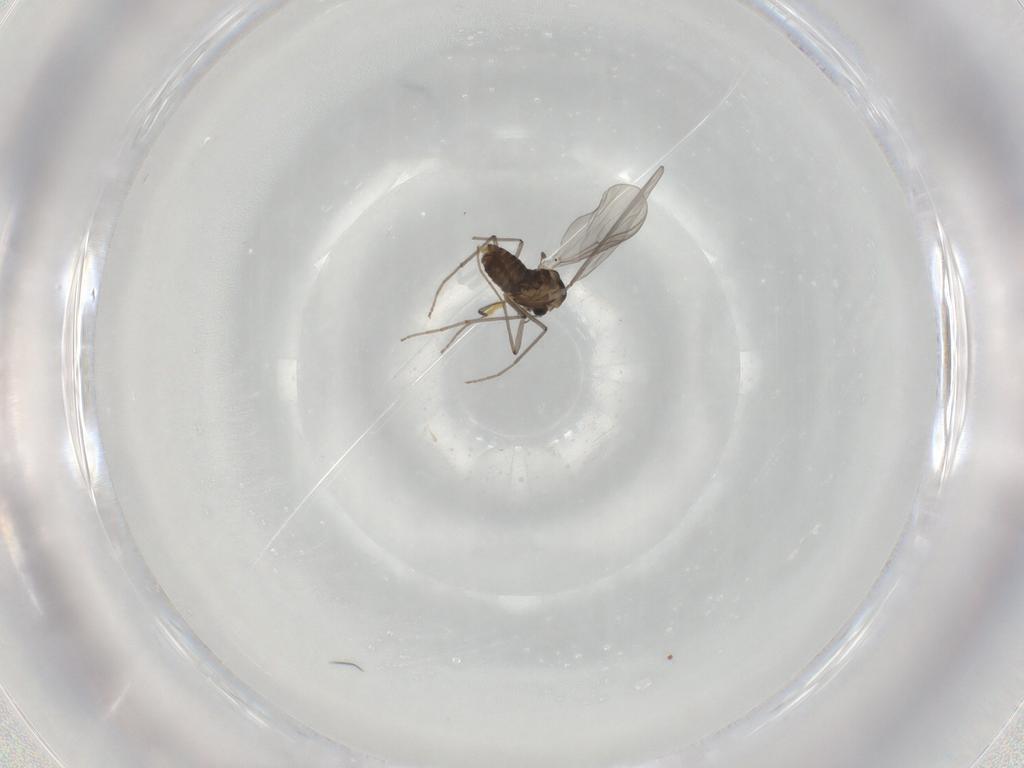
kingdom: Animalia
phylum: Arthropoda
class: Insecta
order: Diptera
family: Chironomidae
